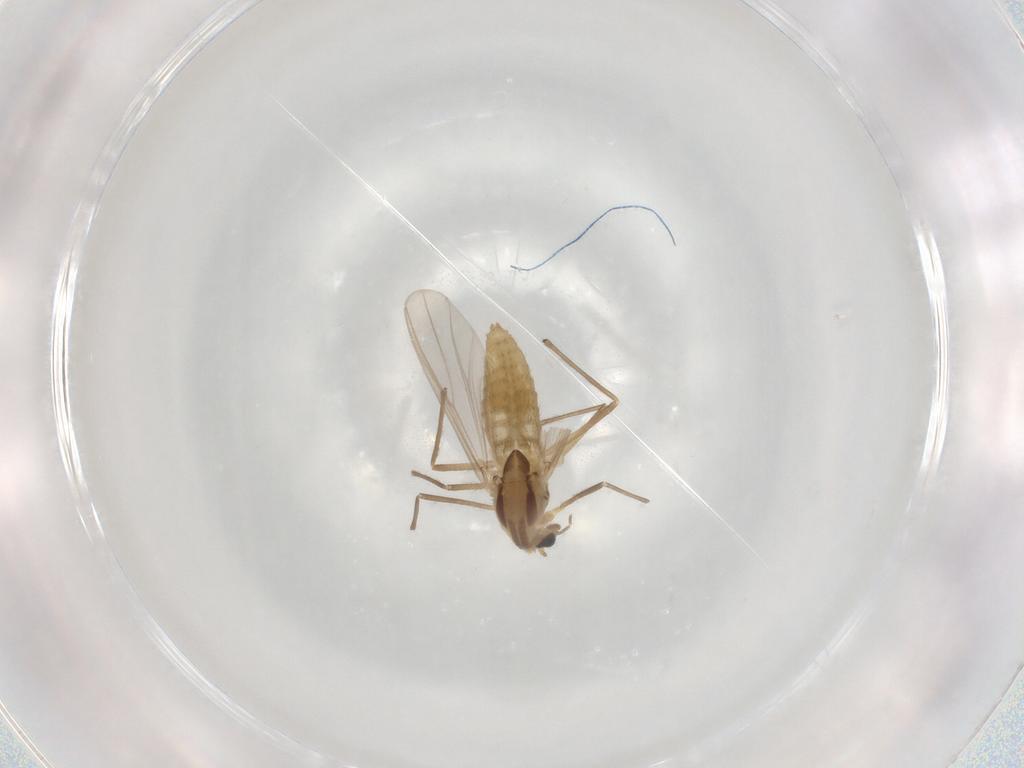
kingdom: Animalia
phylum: Arthropoda
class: Insecta
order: Diptera
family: Chironomidae
